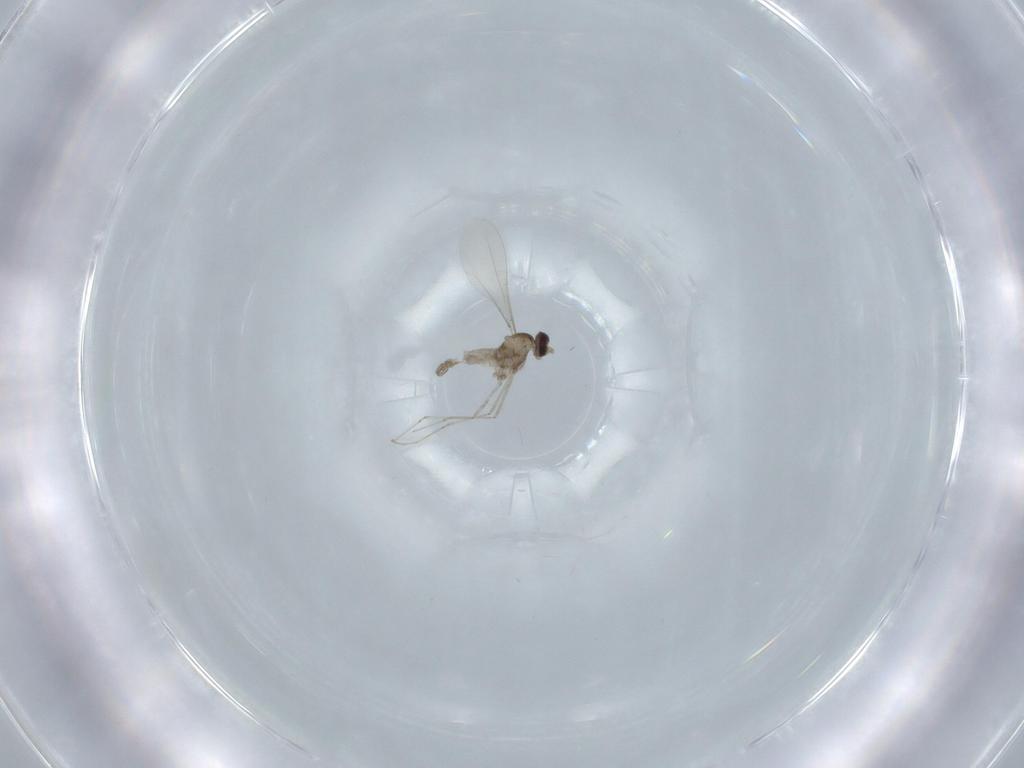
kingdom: Animalia
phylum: Arthropoda
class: Insecta
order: Diptera
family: Cecidomyiidae
